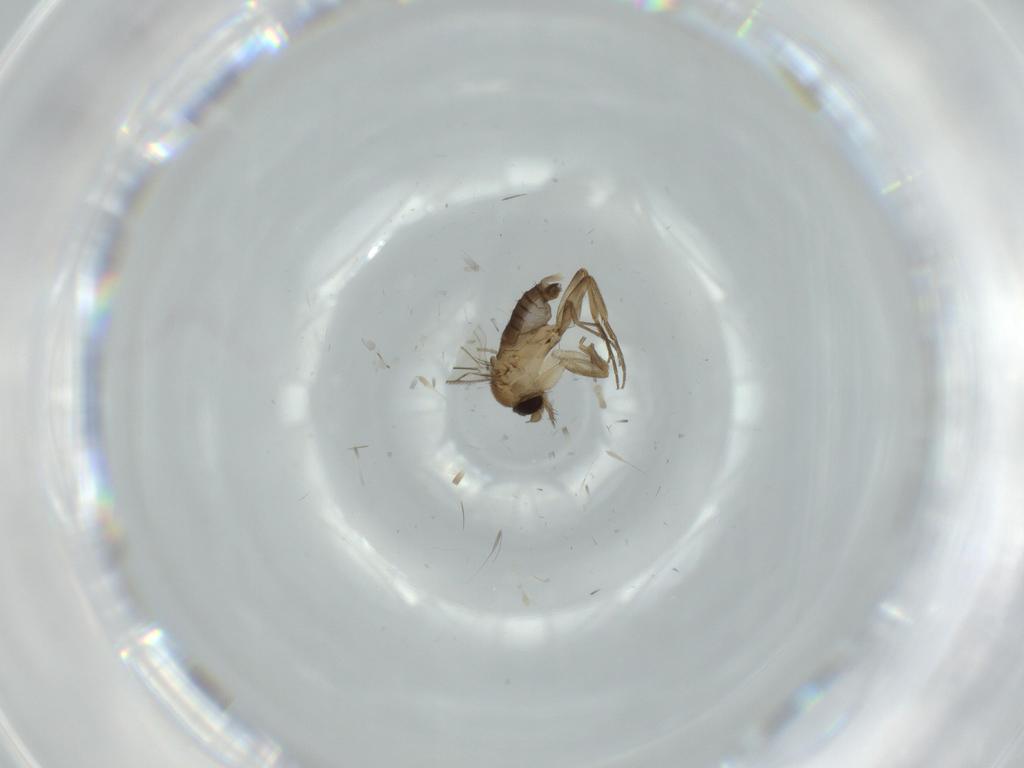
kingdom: Animalia
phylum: Arthropoda
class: Insecta
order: Diptera
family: Phoridae
